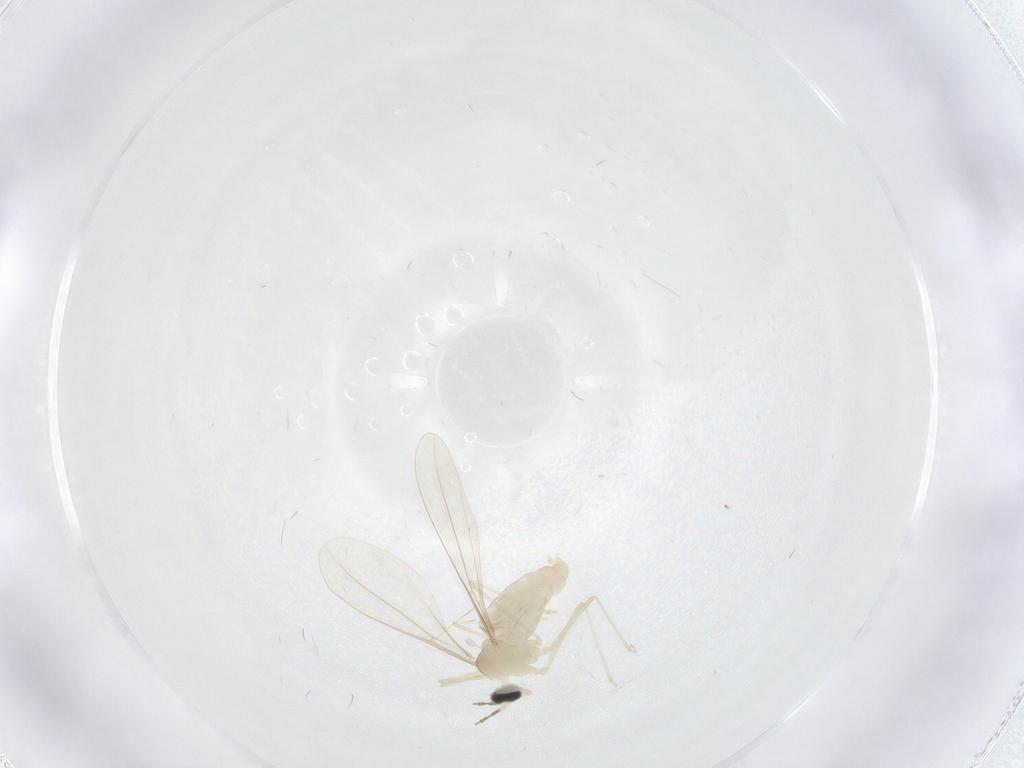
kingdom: Animalia
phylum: Arthropoda
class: Insecta
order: Diptera
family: Cecidomyiidae
